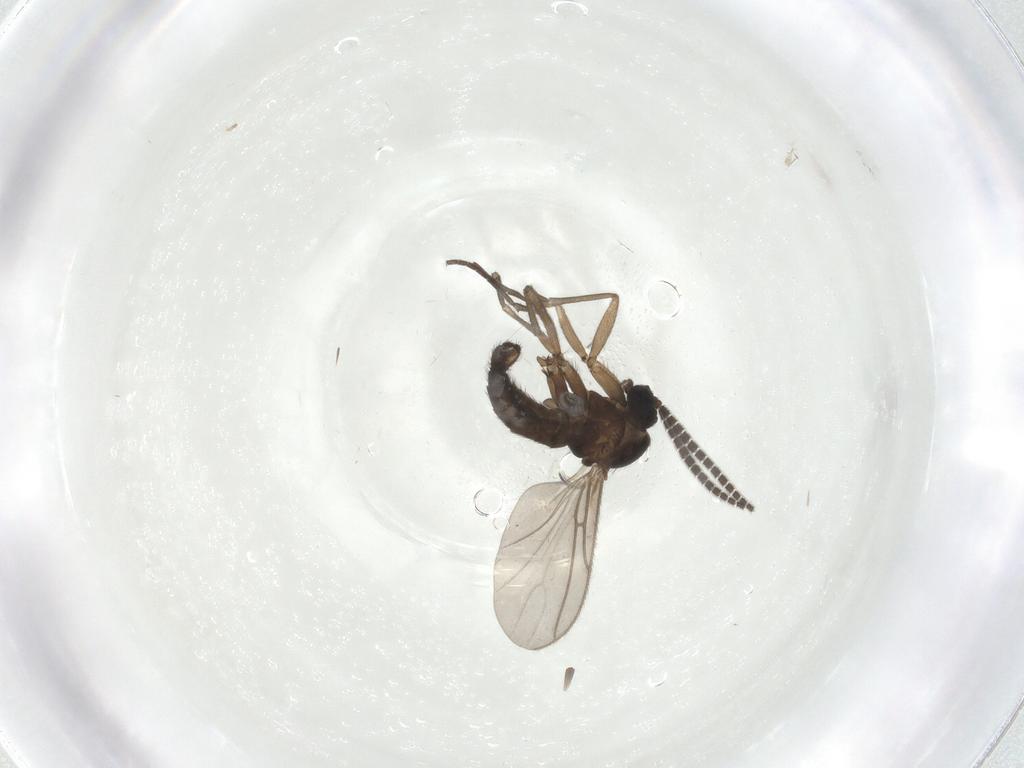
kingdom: Animalia
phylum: Arthropoda
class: Insecta
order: Diptera
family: Sciaridae
